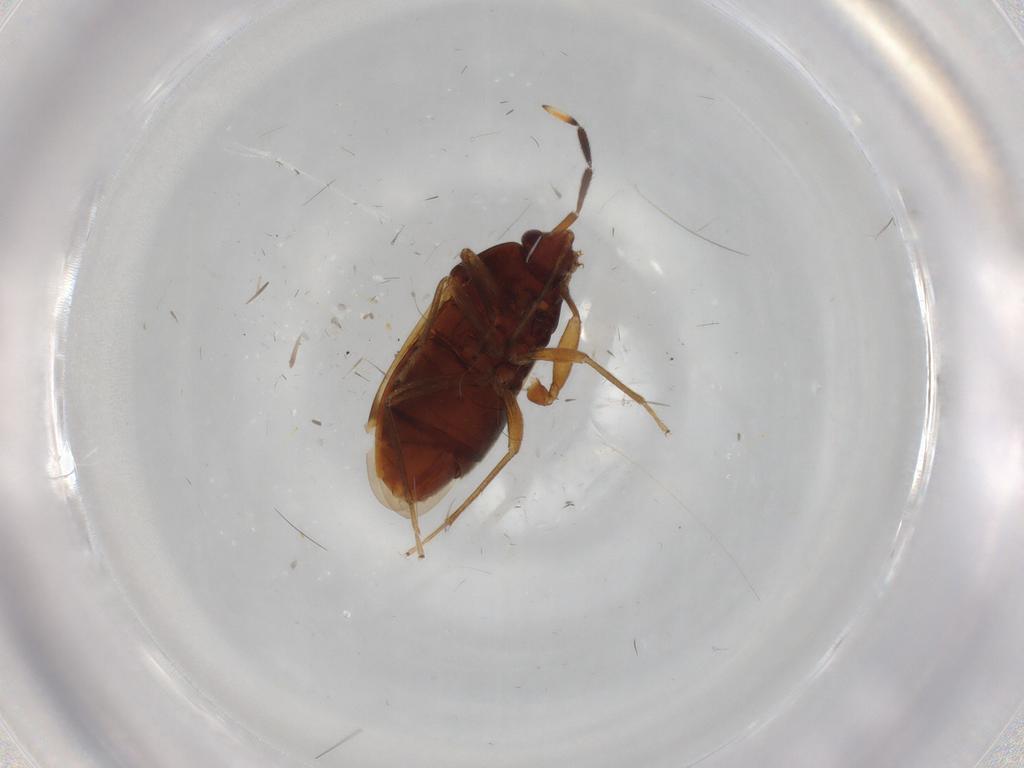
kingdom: Animalia
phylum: Arthropoda
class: Insecta
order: Hemiptera
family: Rhyparochromidae
